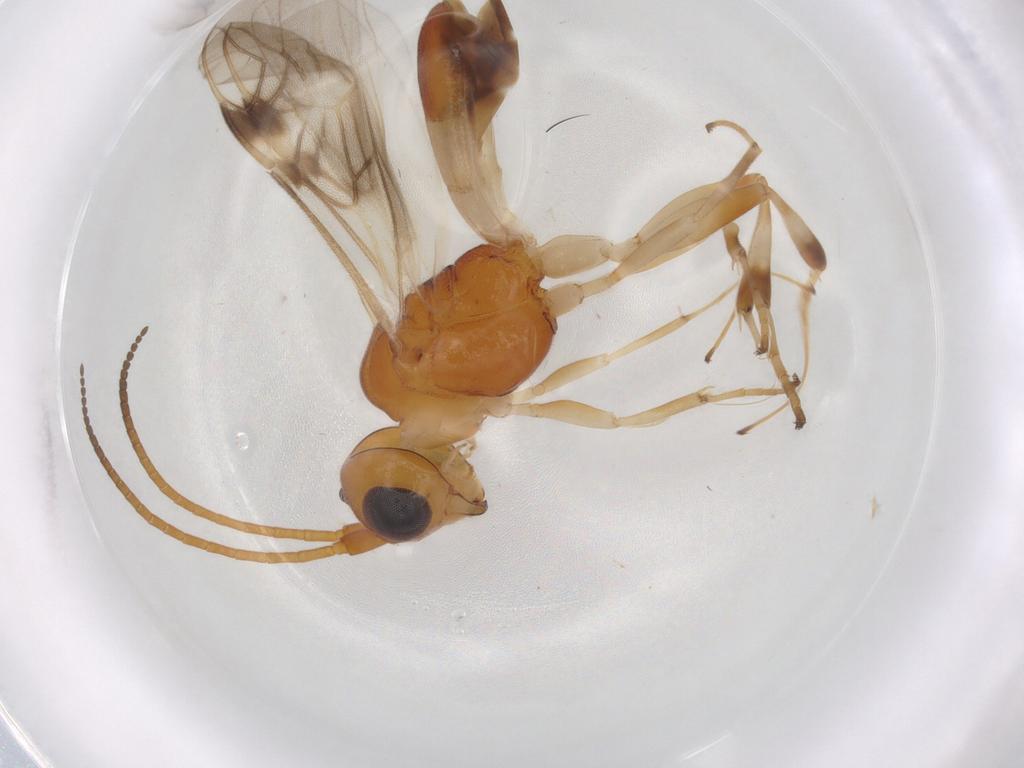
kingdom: Animalia
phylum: Arthropoda
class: Insecta
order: Hymenoptera
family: Braconidae
